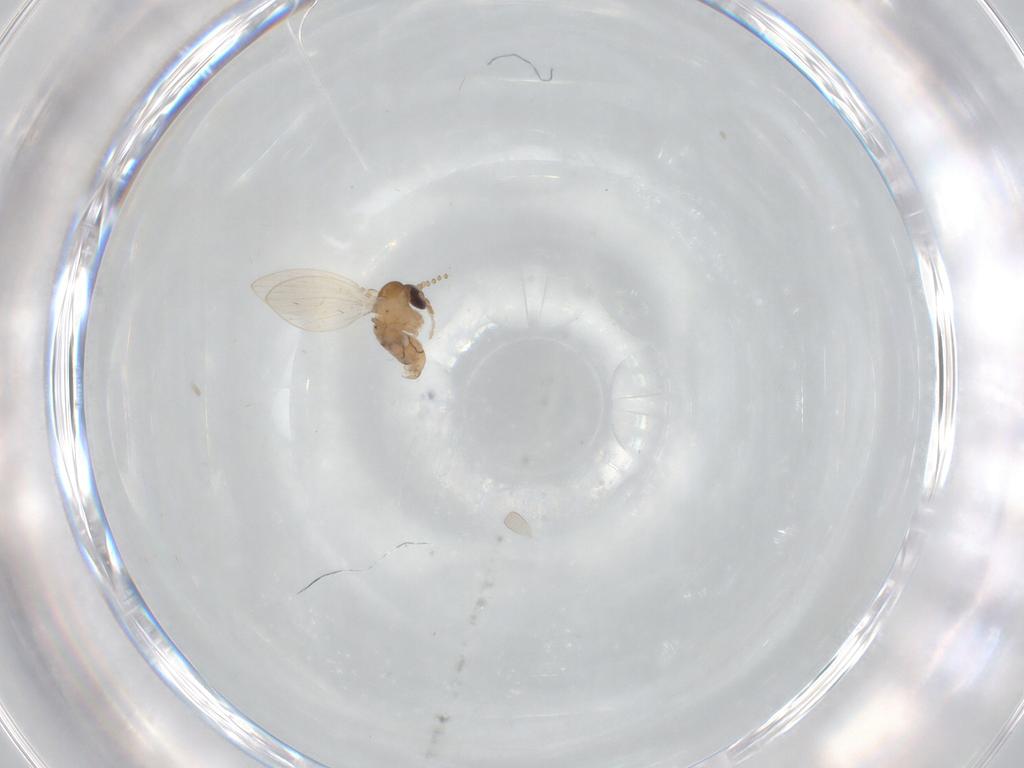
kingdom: Animalia
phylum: Arthropoda
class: Insecta
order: Diptera
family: Psychodidae
